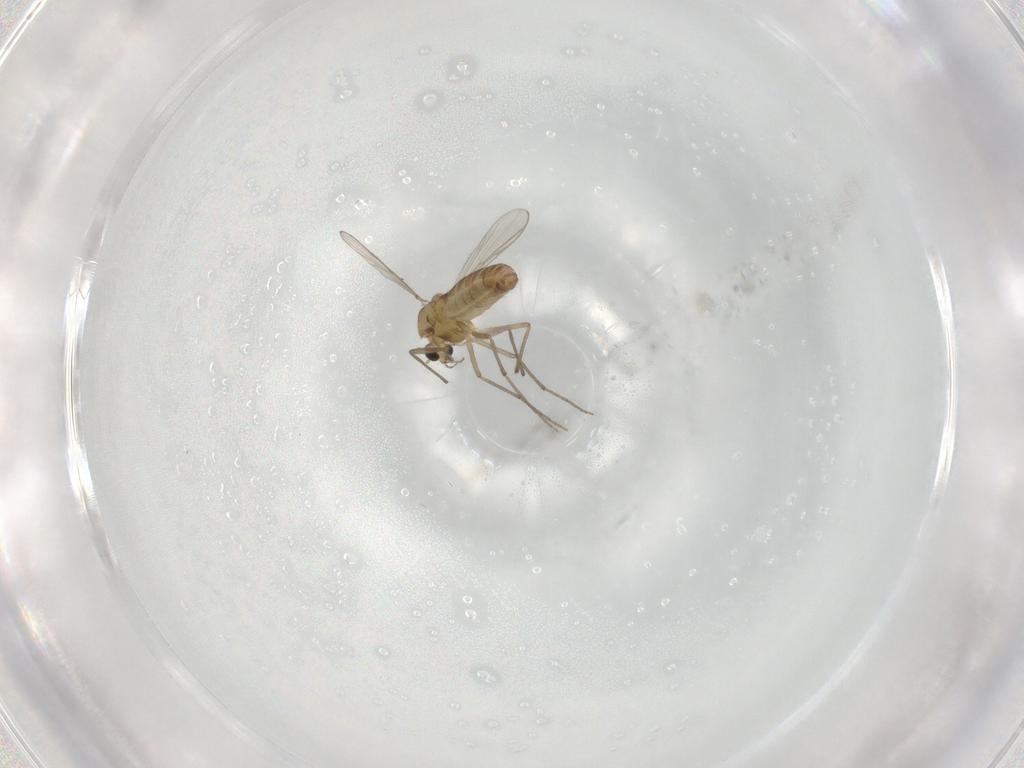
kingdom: Animalia
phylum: Arthropoda
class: Insecta
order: Diptera
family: Chironomidae
